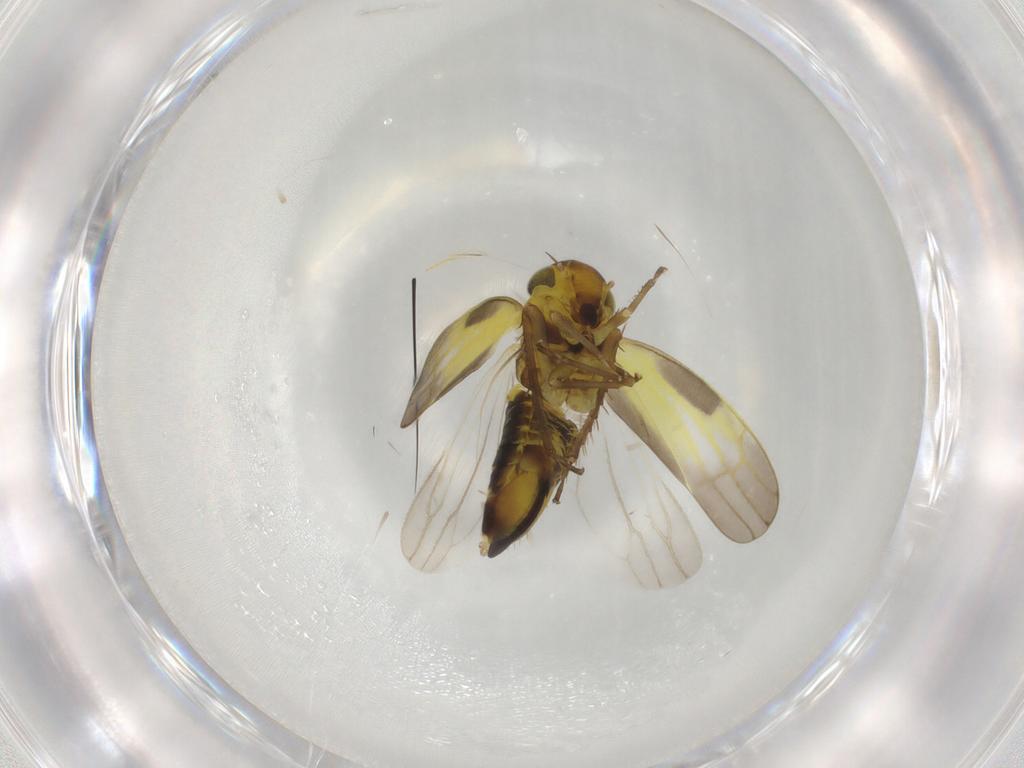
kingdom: Animalia
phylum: Arthropoda
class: Insecta
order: Hemiptera
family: Cicadellidae
